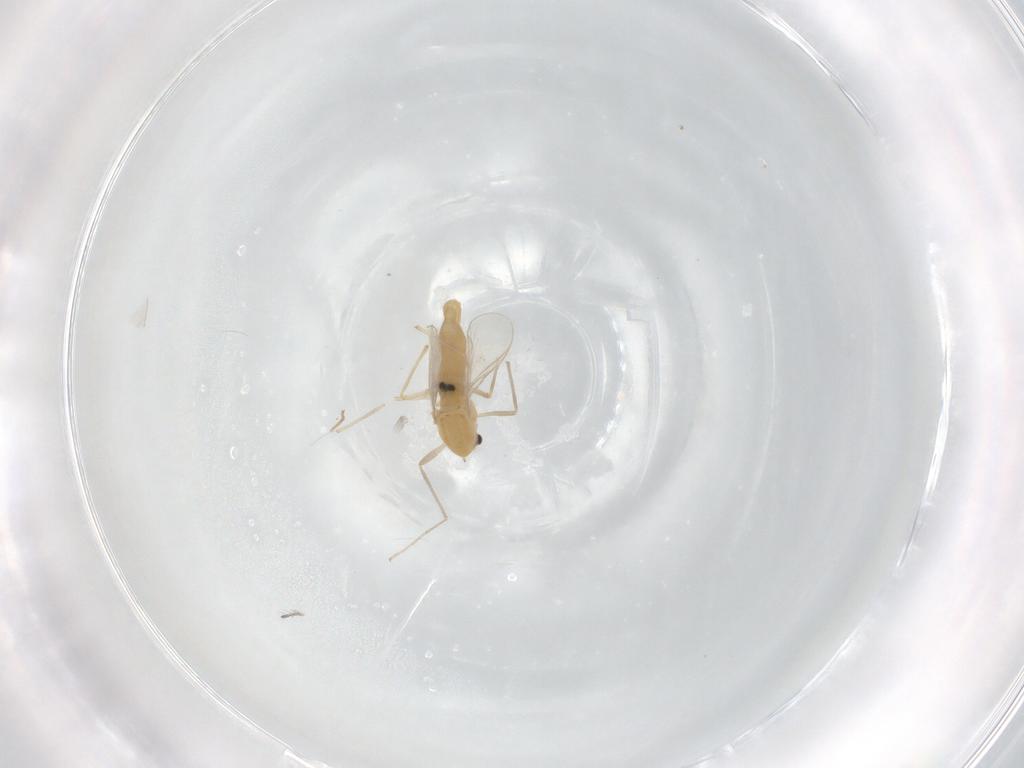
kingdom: Animalia
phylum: Arthropoda
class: Insecta
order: Diptera
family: Chironomidae
